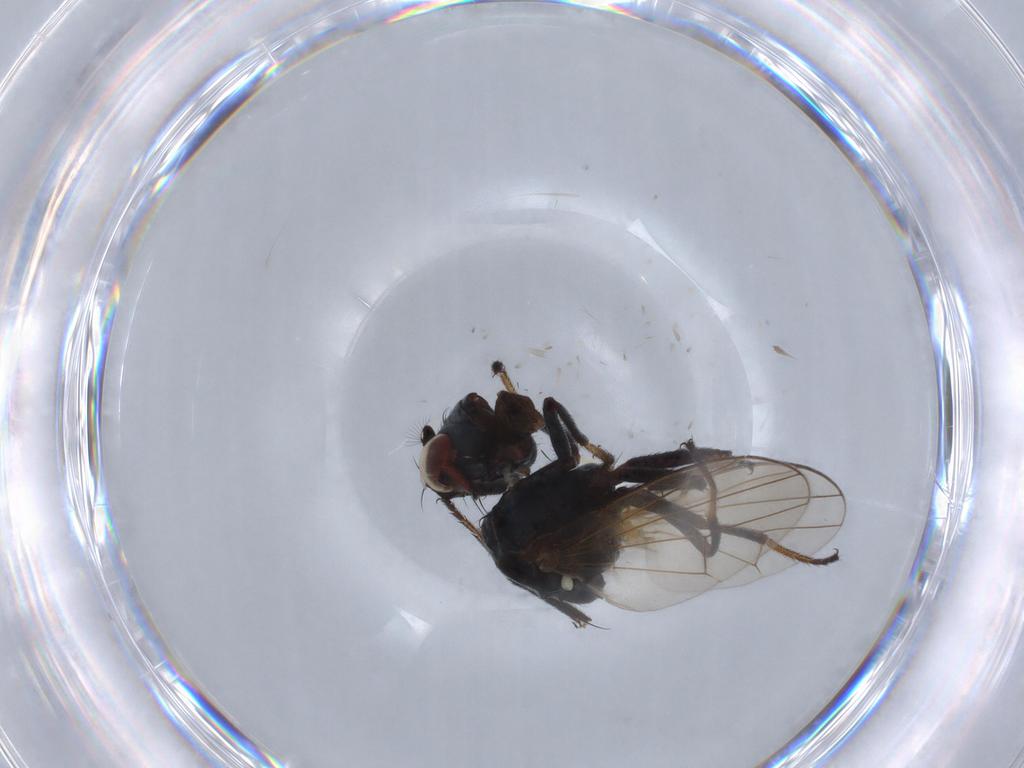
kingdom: Animalia
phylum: Arthropoda
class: Insecta
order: Diptera
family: Ephydridae
